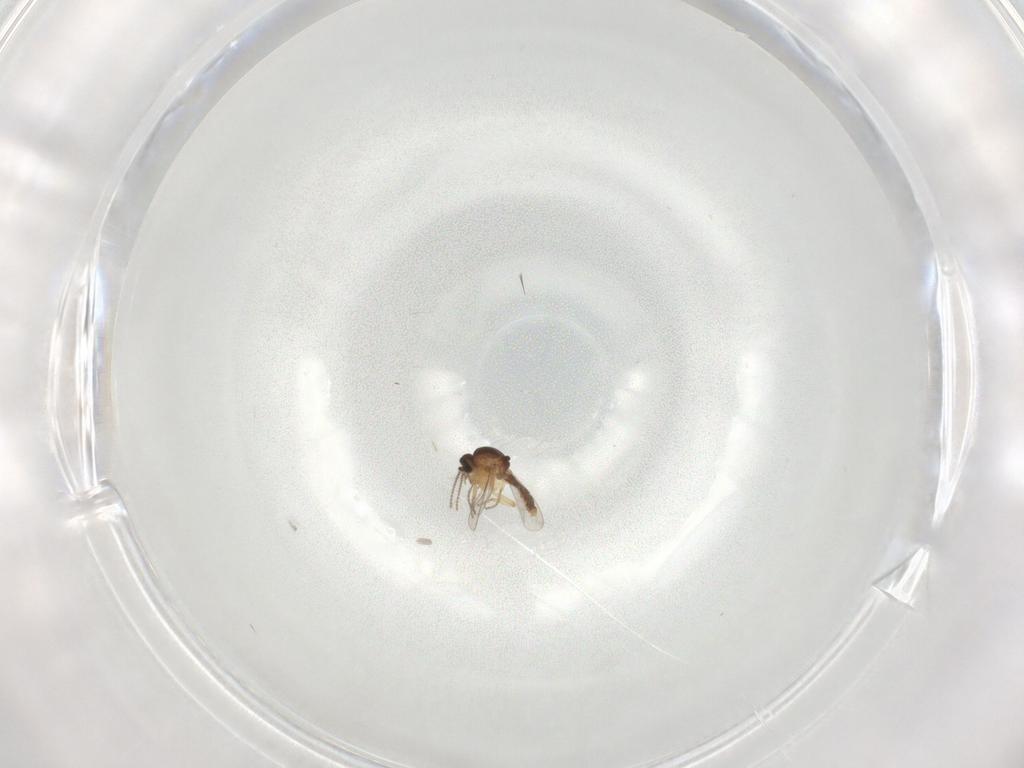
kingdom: Animalia
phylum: Arthropoda
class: Insecta
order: Diptera
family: Ceratopogonidae
